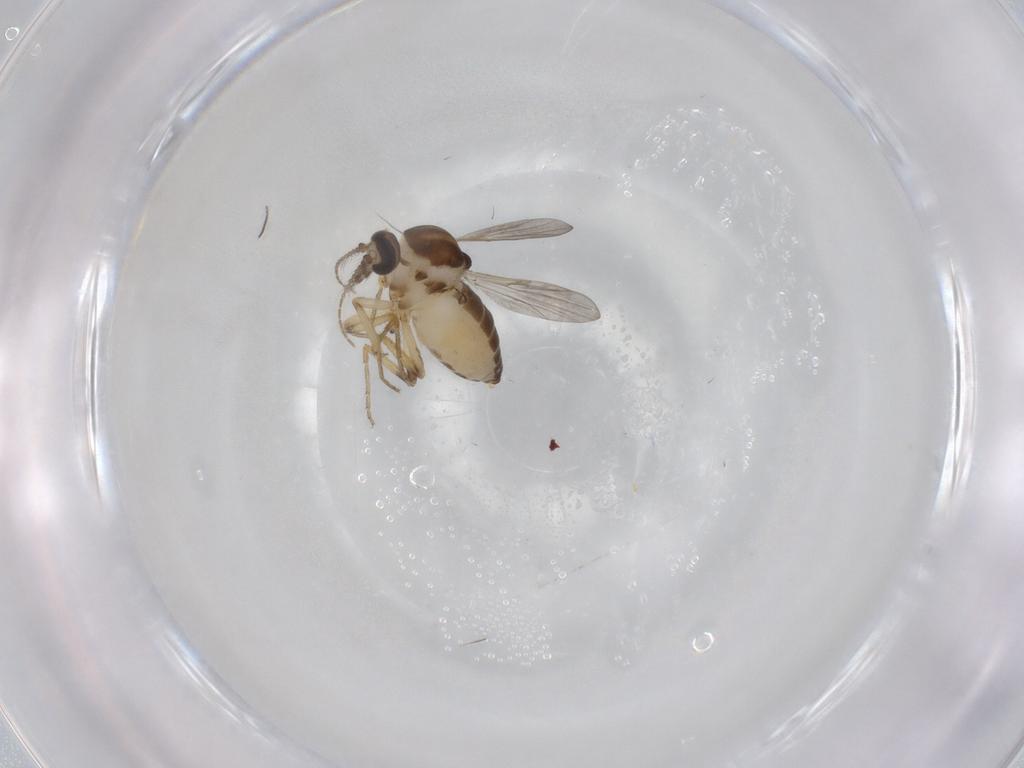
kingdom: Animalia
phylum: Arthropoda
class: Insecta
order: Diptera
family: Ceratopogonidae
